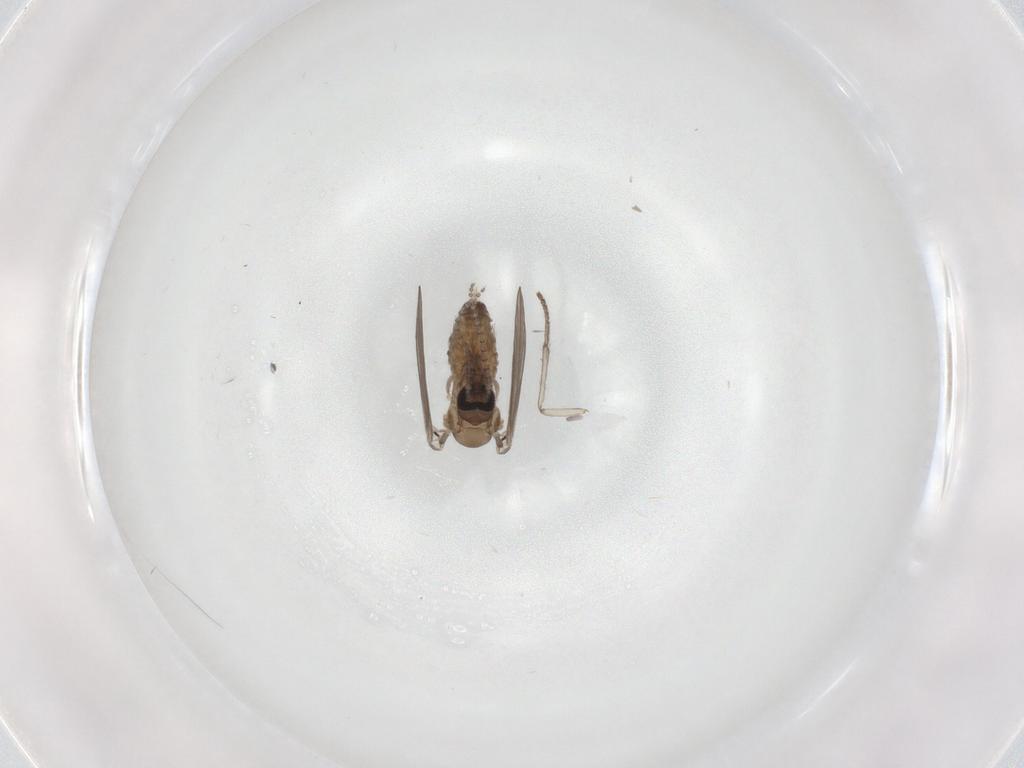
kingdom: Animalia
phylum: Arthropoda
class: Insecta
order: Diptera
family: Psychodidae
